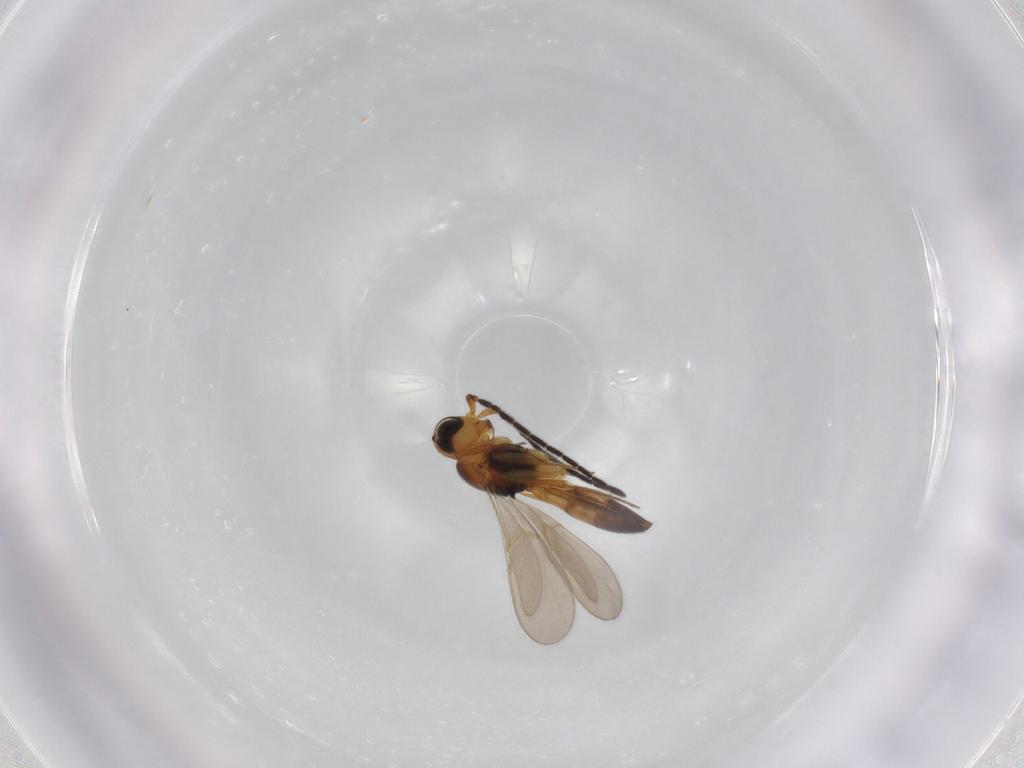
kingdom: Animalia
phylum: Arthropoda
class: Insecta
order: Hymenoptera
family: Scelionidae
